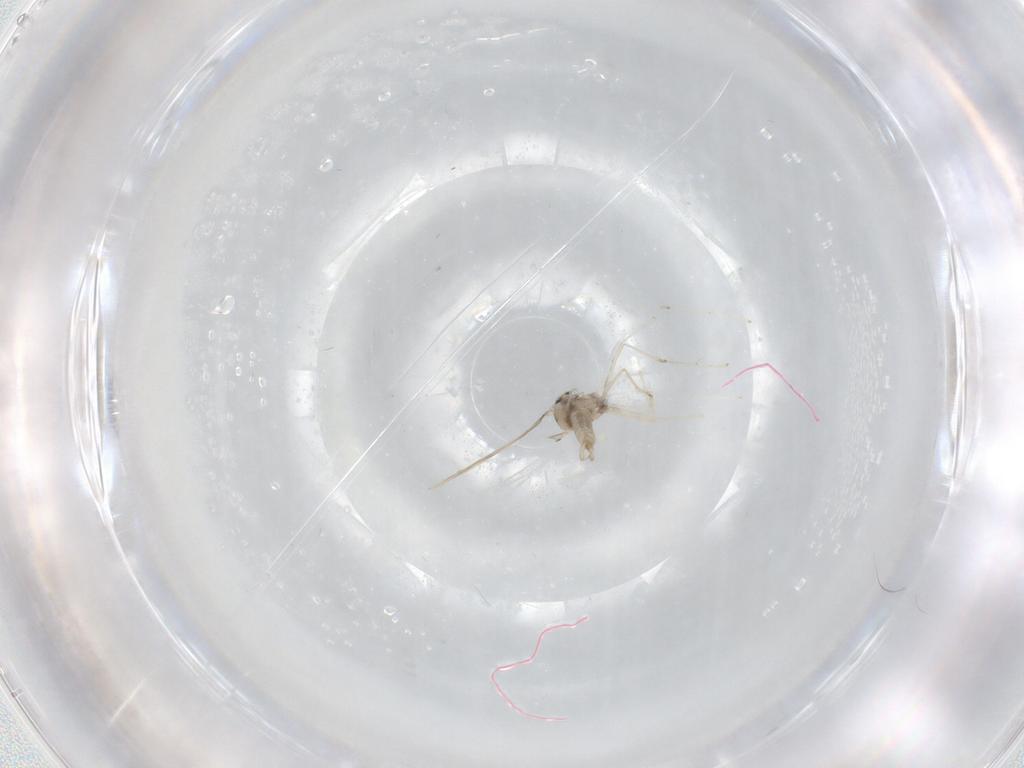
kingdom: Animalia
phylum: Arthropoda
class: Insecta
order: Diptera
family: Cecidomyiidae
